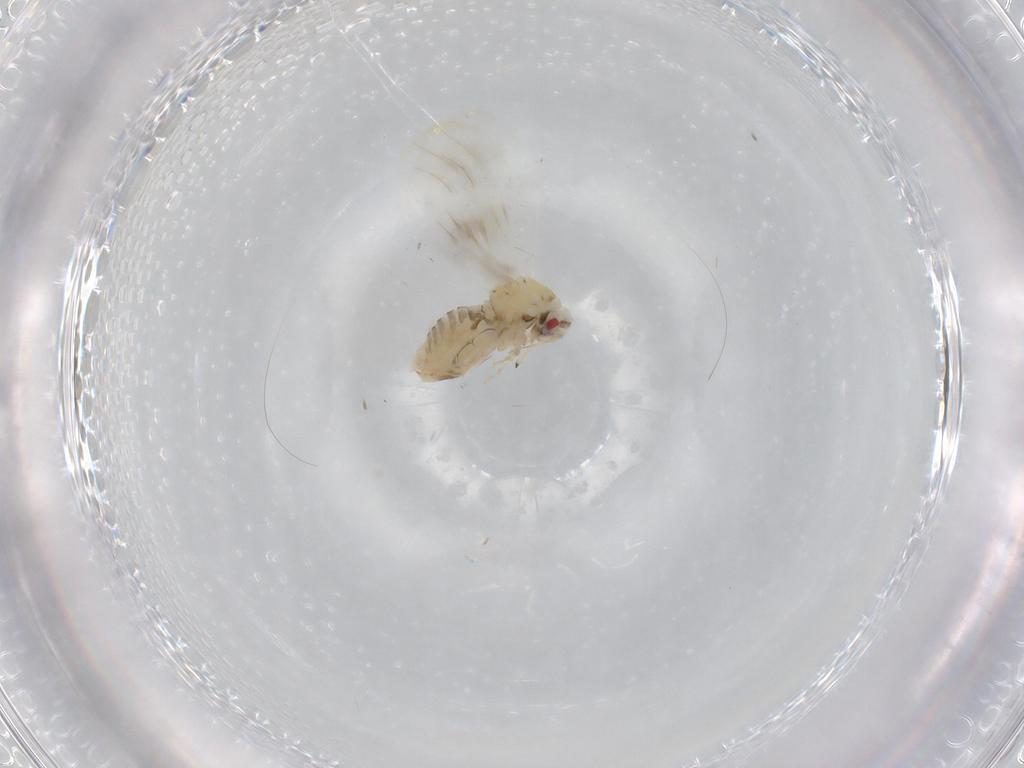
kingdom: Animalia
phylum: Arthropoda
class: Insecta
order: Hemiptera
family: Aleyrodidae
